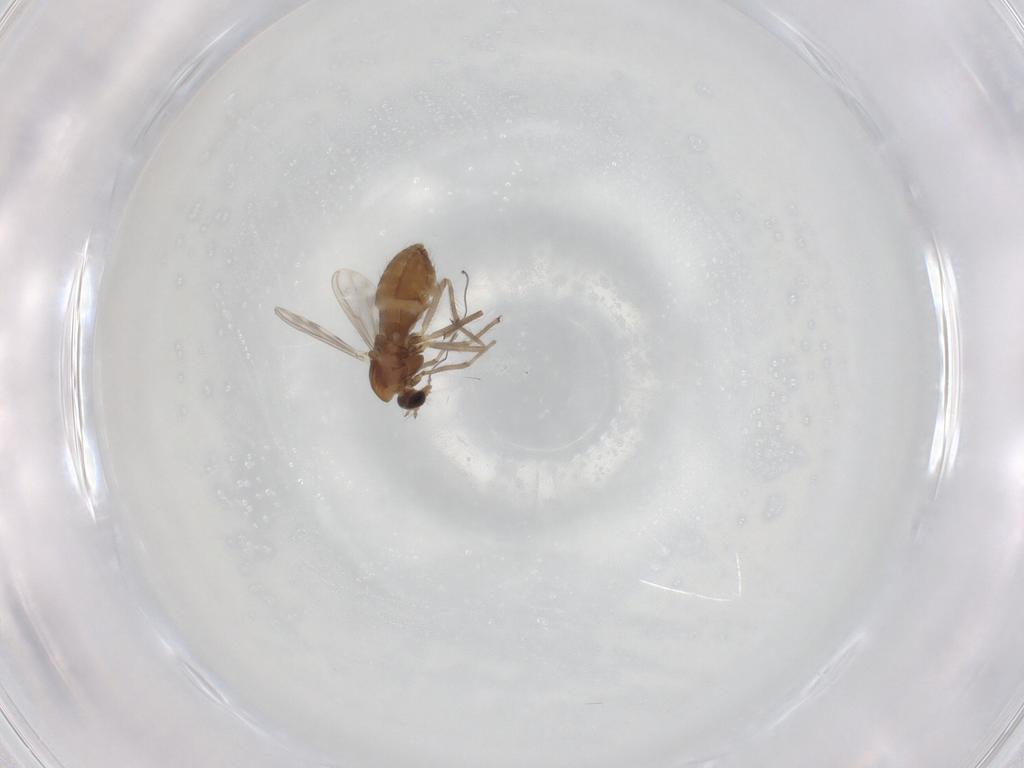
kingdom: Animalia
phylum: Arthropoda
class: Insecta
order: Diptera
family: Chironomidae
